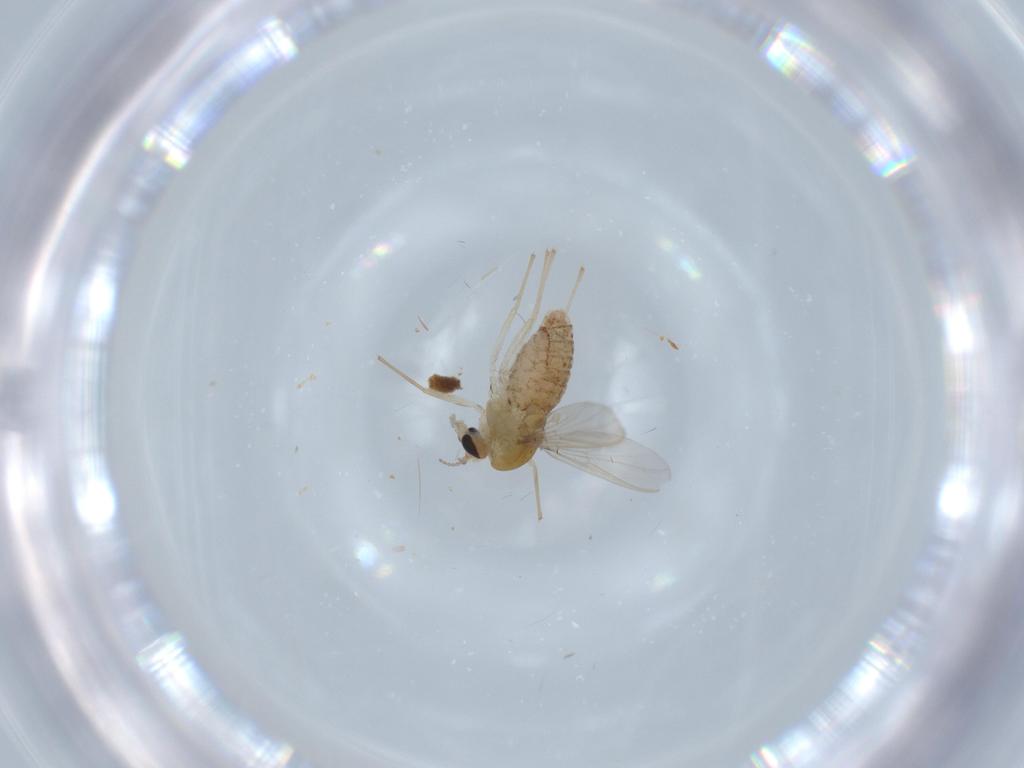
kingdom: Animalia
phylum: Arthropoda
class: Insecta
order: Diptera
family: Chironomidae
